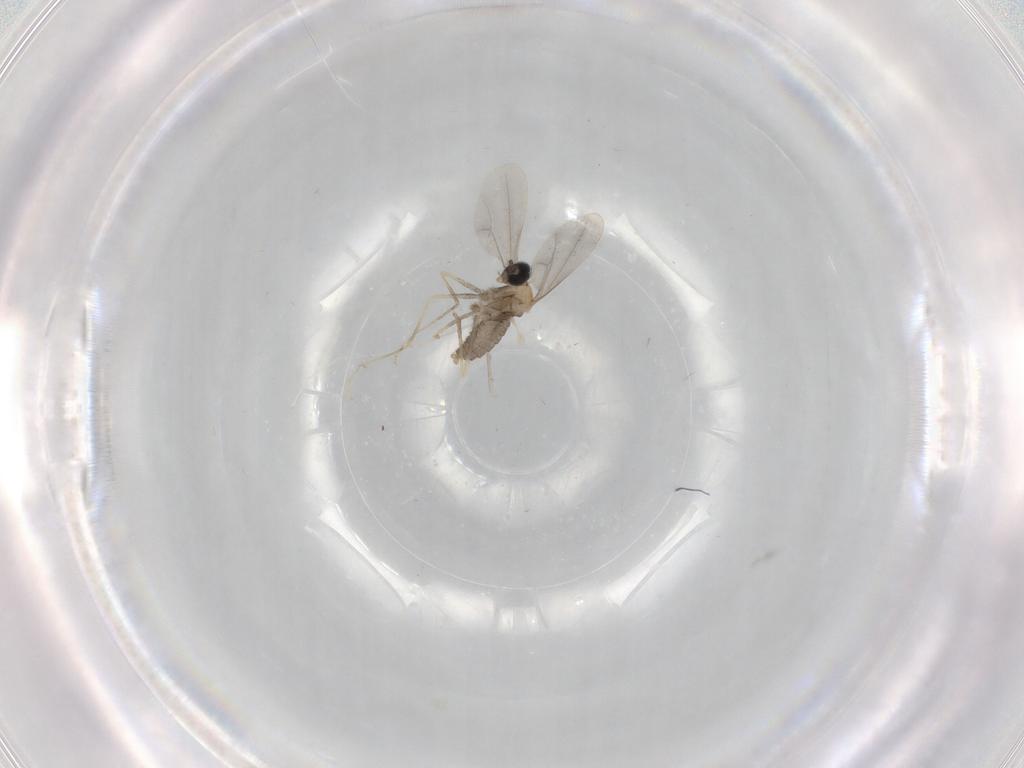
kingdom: Animalia
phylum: Arthropoda
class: Insecta
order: Diptera
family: Cecidomyiidae
